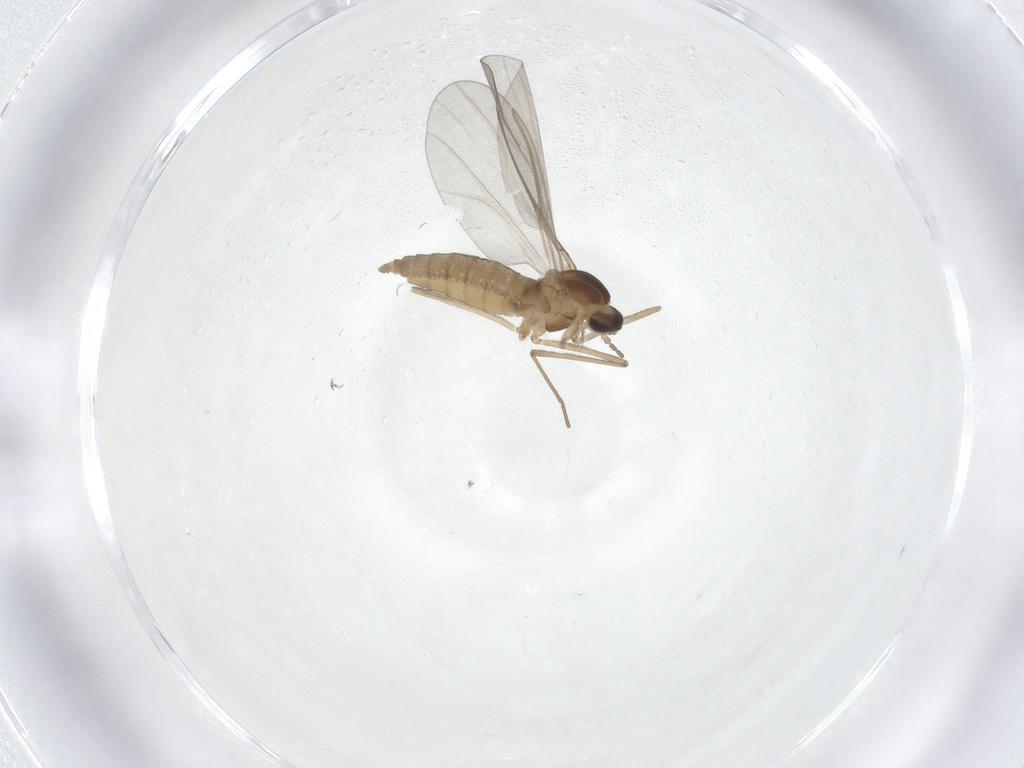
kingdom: Animalia
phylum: Arthropoda
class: Insecta
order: Diptera
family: Cecidomyiidae
